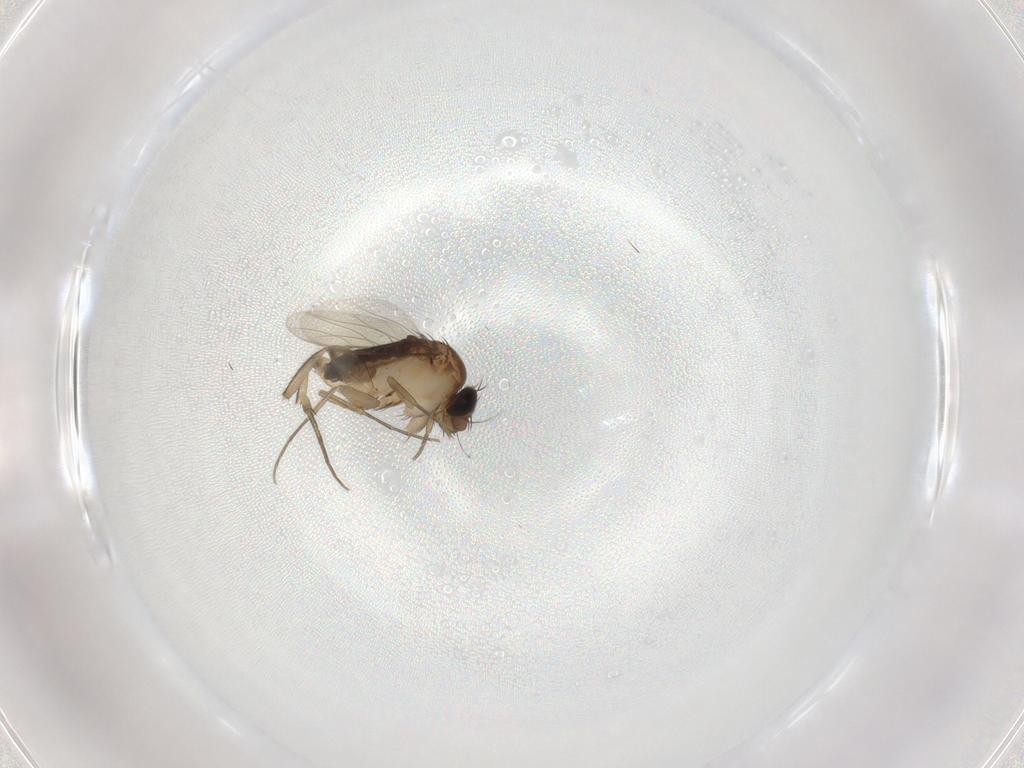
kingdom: Animalia
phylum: Arthropoda
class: Insecta
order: Diptera
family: Phoridae
